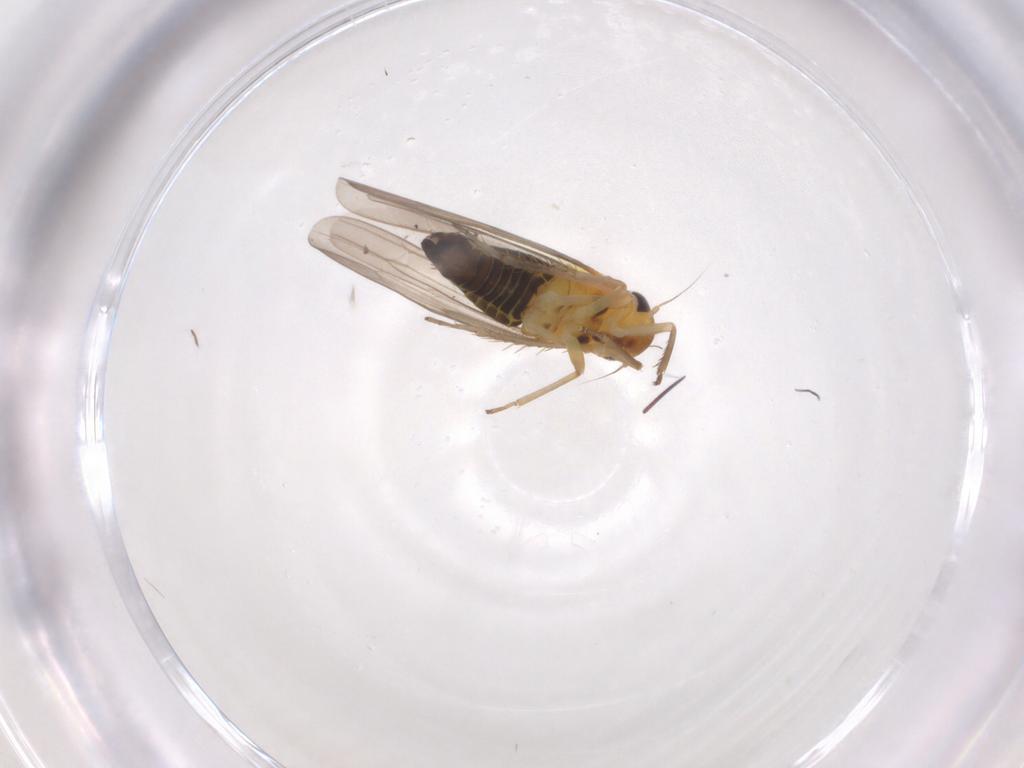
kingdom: Animalia
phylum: Arthropoda
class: Insecta
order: Hemiptera
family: Cicadellidae
